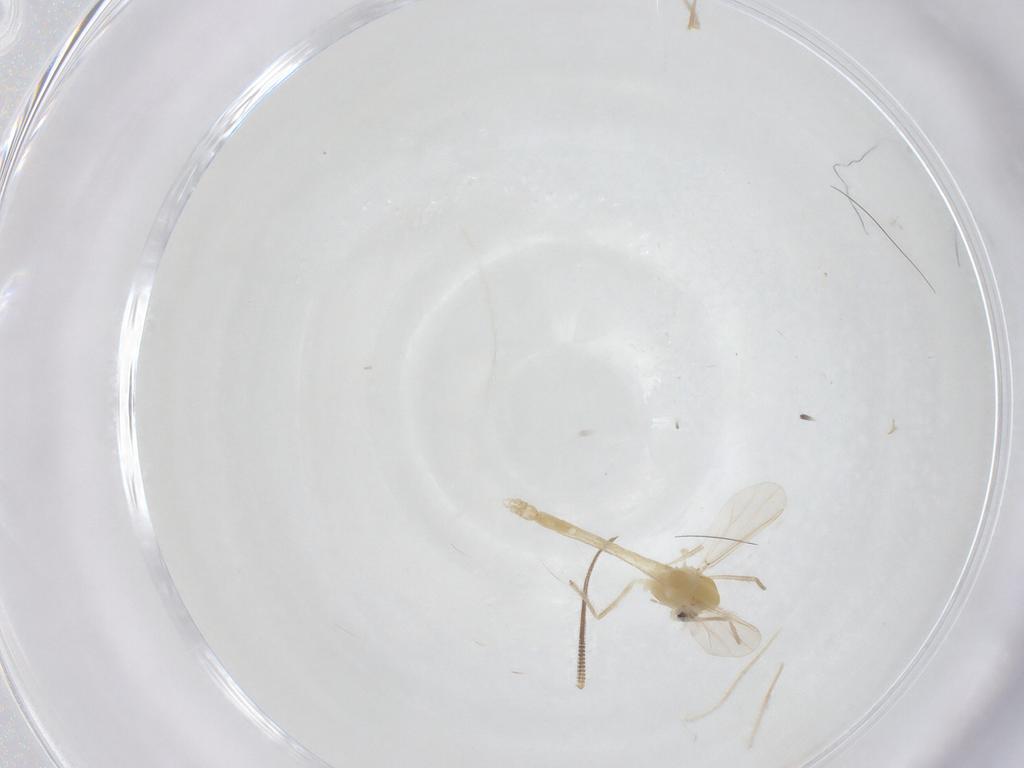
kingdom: Animalia
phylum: Arthropoda
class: Insecta
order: Diptera
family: Chironomidae
